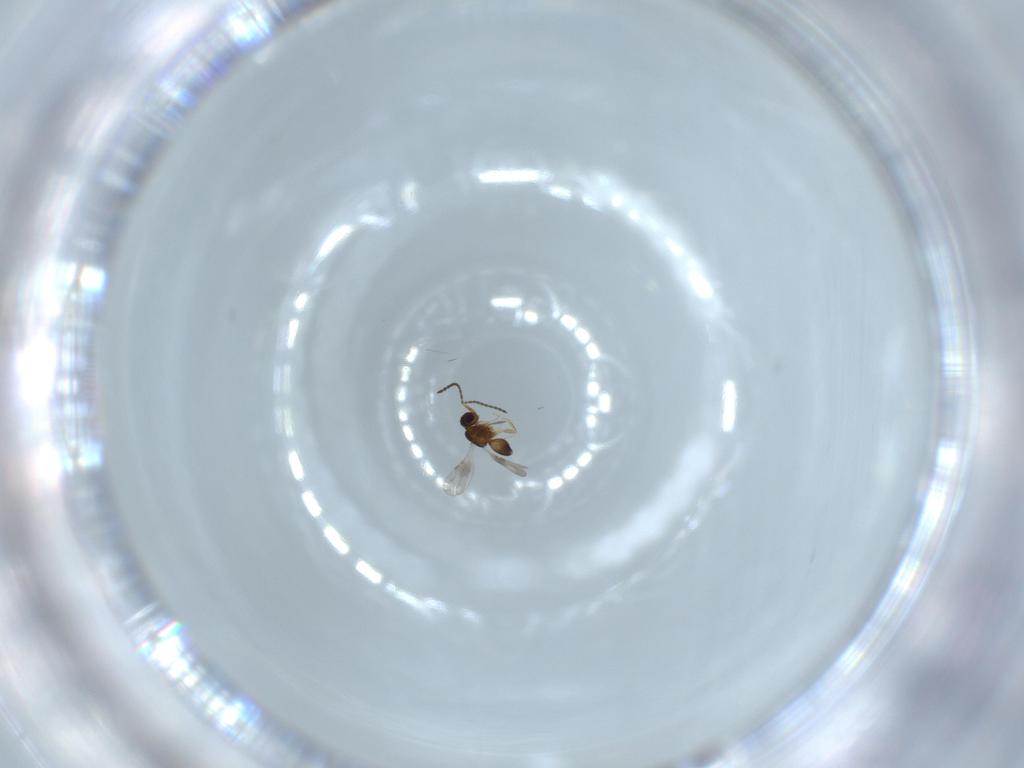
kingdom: Animalia
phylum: Arthropoda
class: Insecta
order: Hymenoptera
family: Ceraphronidae
